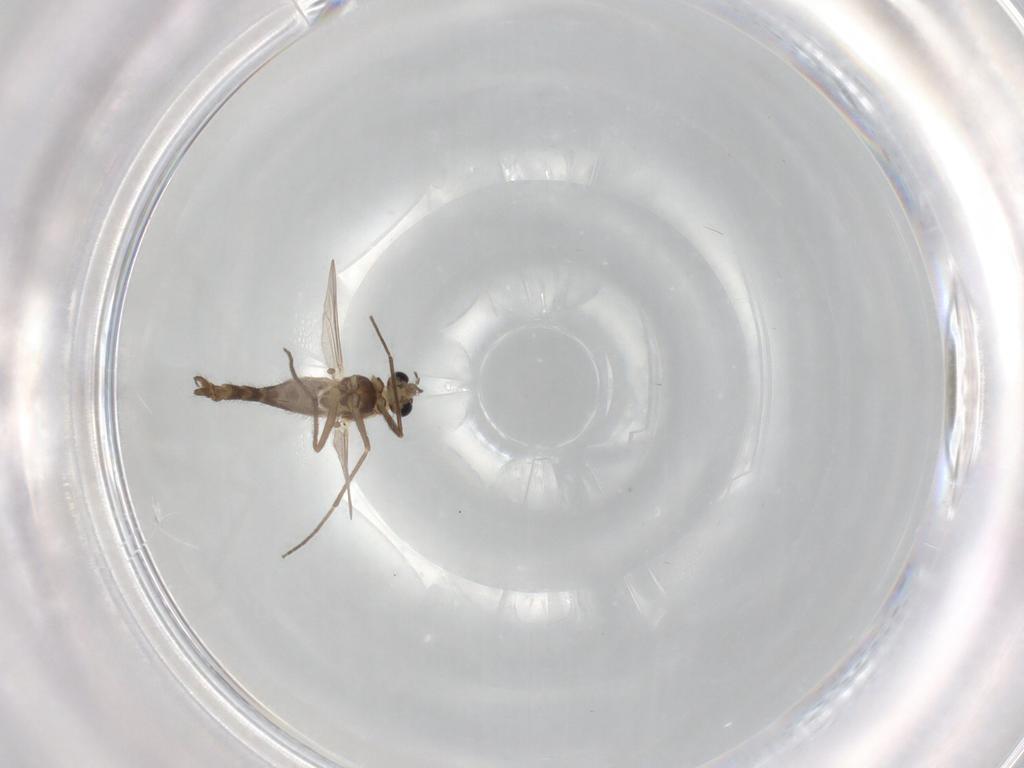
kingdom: Animalia
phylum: Arthropoda
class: Insecta
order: Diptera
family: Chironomidae
